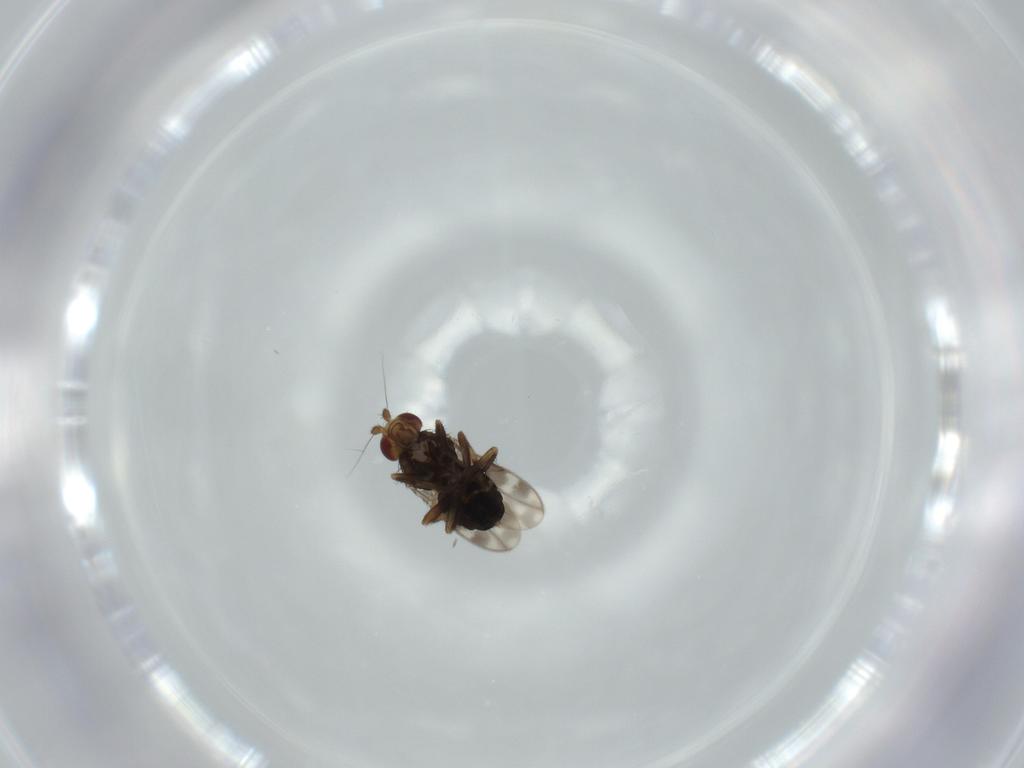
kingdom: Animalia
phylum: Arthropoda
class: Insecta
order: Diptera
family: Sphaeroceridae
